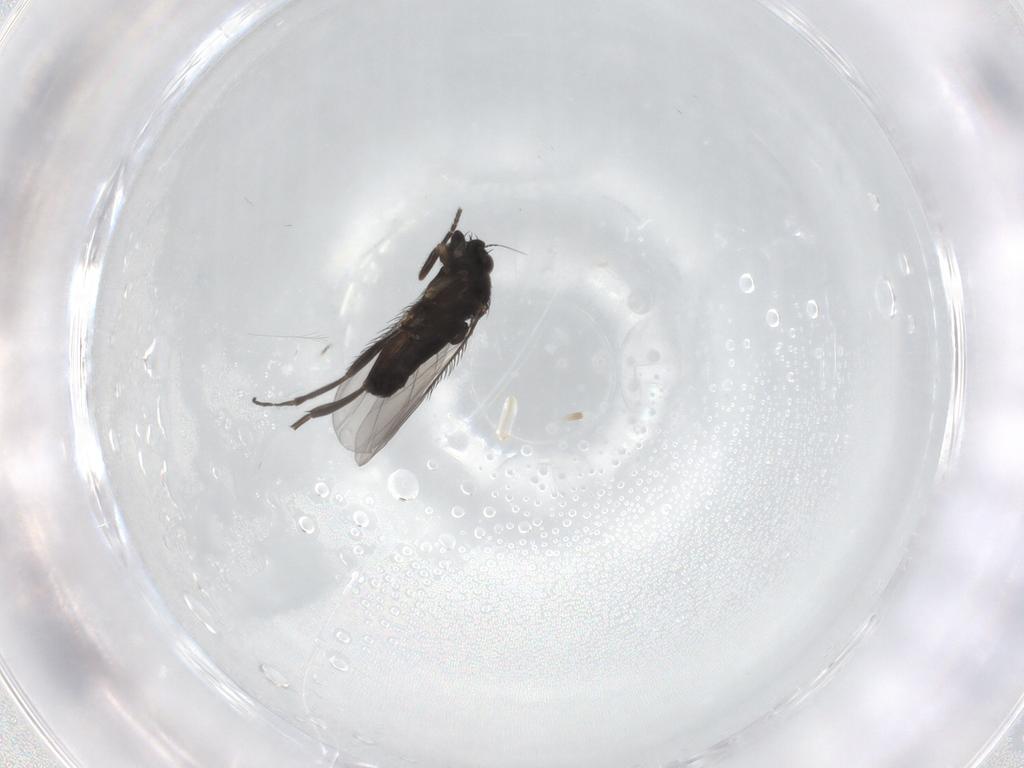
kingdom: Animalia
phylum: Arthropoda
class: Insecta
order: Diptera
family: Phoridae
